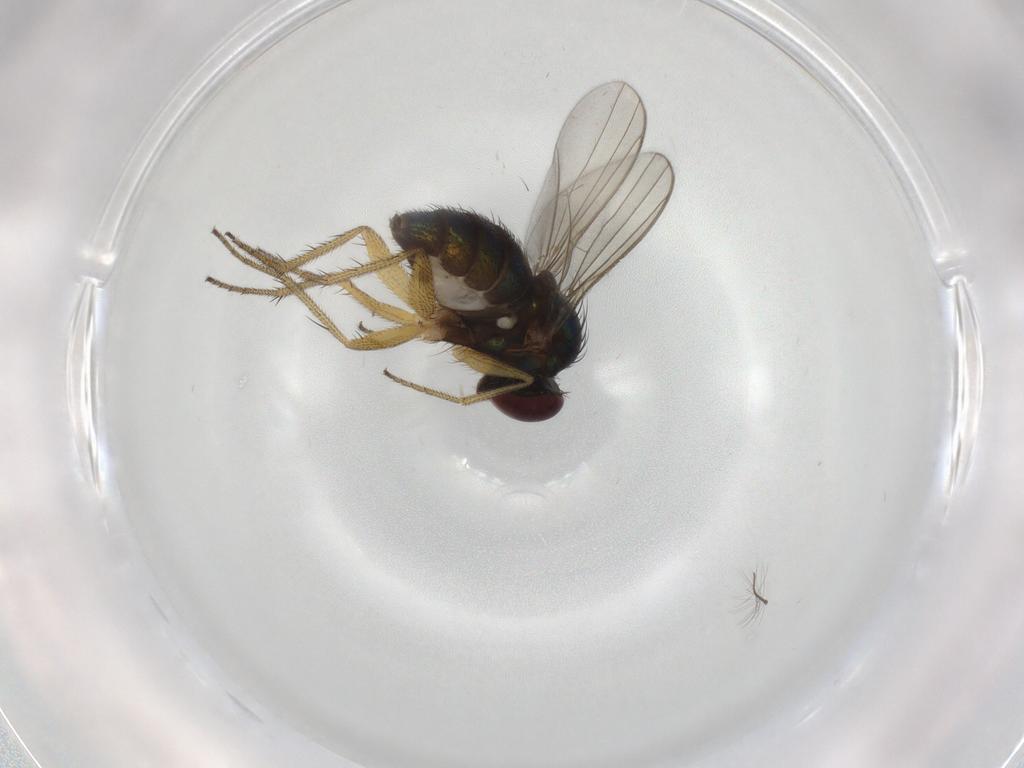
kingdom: Animalia
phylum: Arthropoda
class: Insecta
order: Diptera
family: Dolichopodidae
